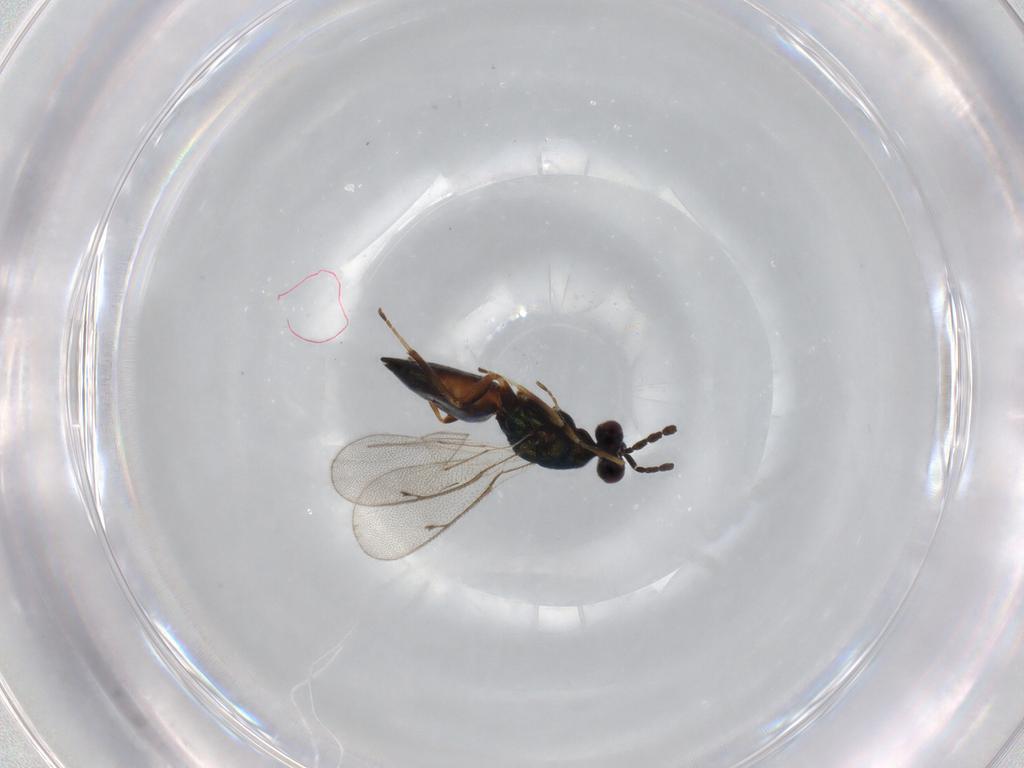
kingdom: Animalia
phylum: Arthropoda
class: Insecta
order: Hymenoptera
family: Eulophidae
